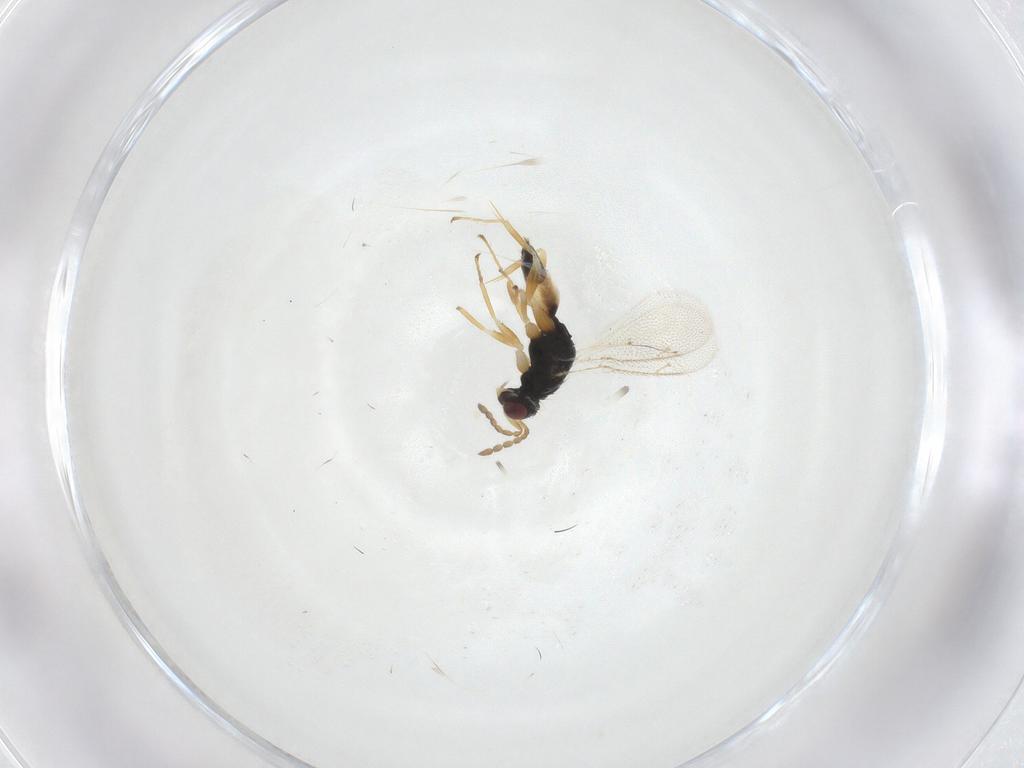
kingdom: Animalia
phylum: Arthropoda
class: Insecta
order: Hymenoptera
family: Eulophidae
